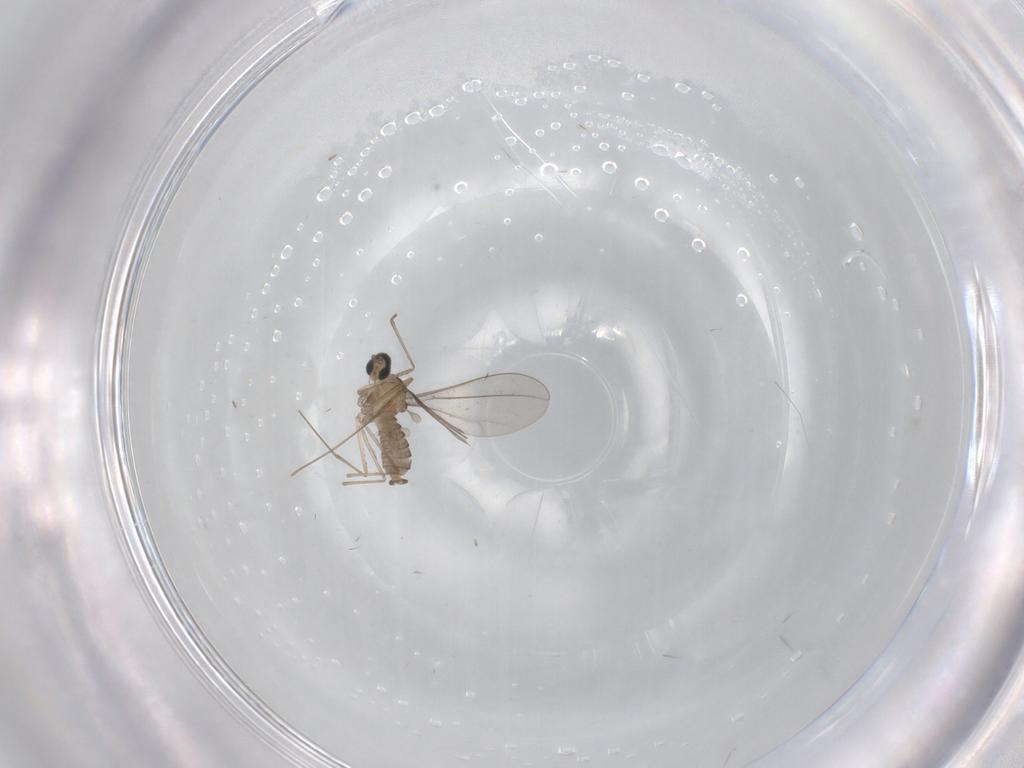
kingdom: Animalia
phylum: Arthropoda
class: Insecta
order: Diptera
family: Cecidomyiidae
